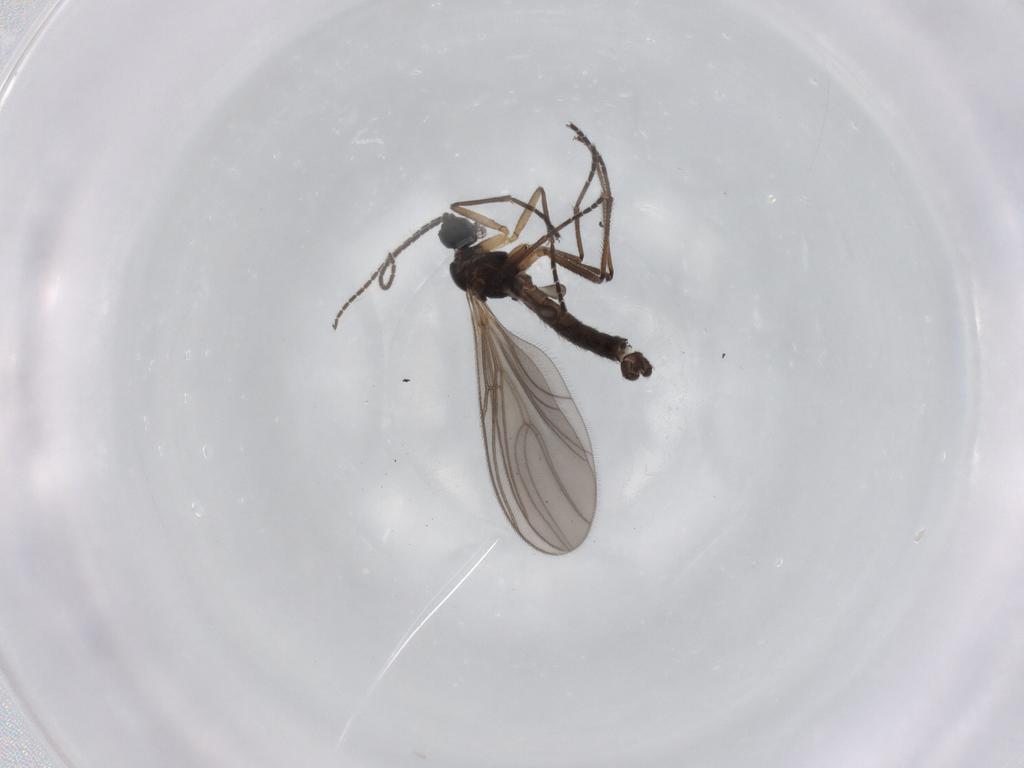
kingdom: Animalia
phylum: Arthropoda
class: Insecta
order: Diptera
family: Sciaridae
